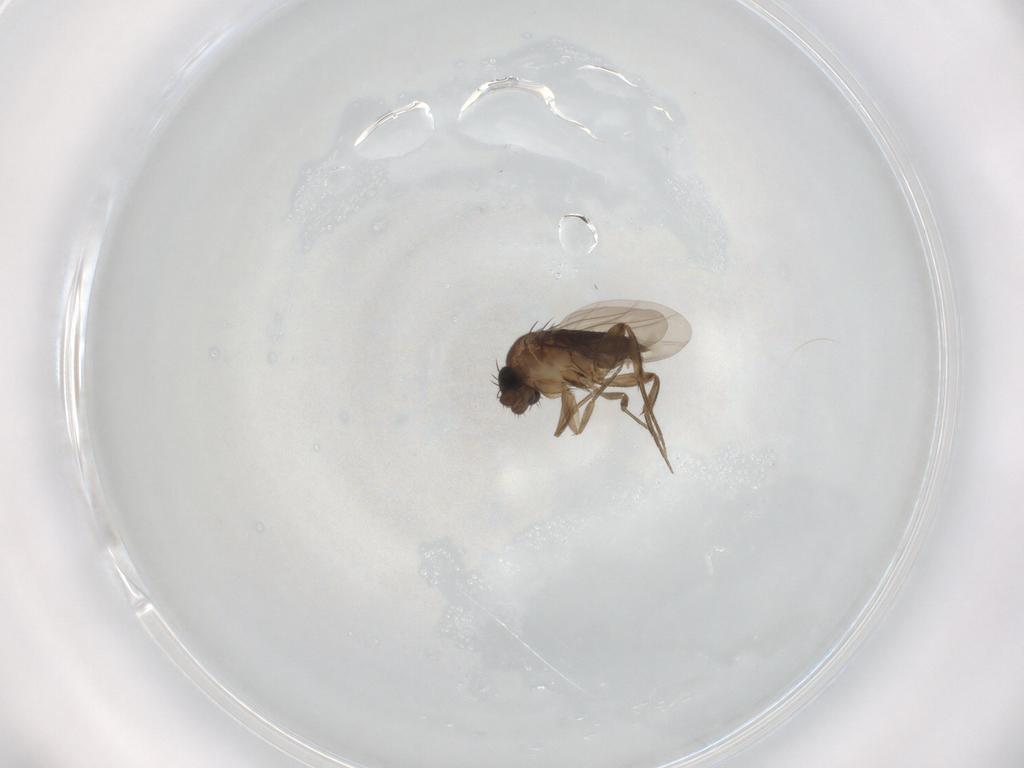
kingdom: Animalia
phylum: Arthropoda
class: Insecta
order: Diptera
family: Phoridae
